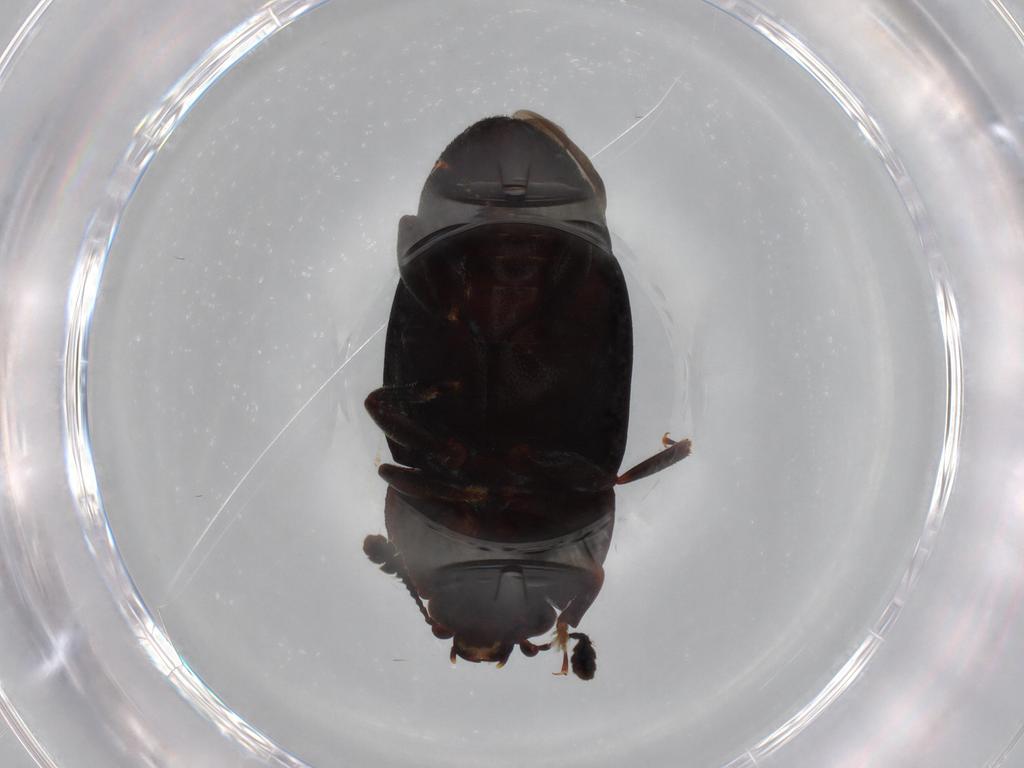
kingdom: Animalia
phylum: Arthropoda
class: Insecta
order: Coleoptera
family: Nitidulidae
